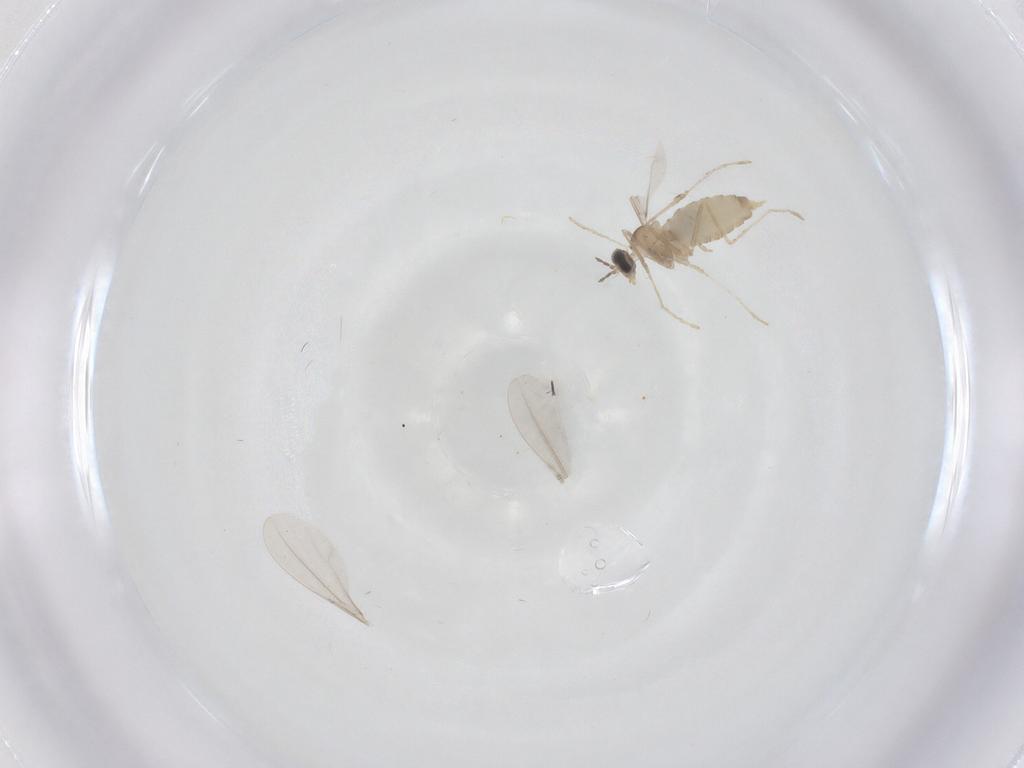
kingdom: Animalia
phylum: Arthropoda
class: Insecta
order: Diptera
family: Cecidomyiidae
